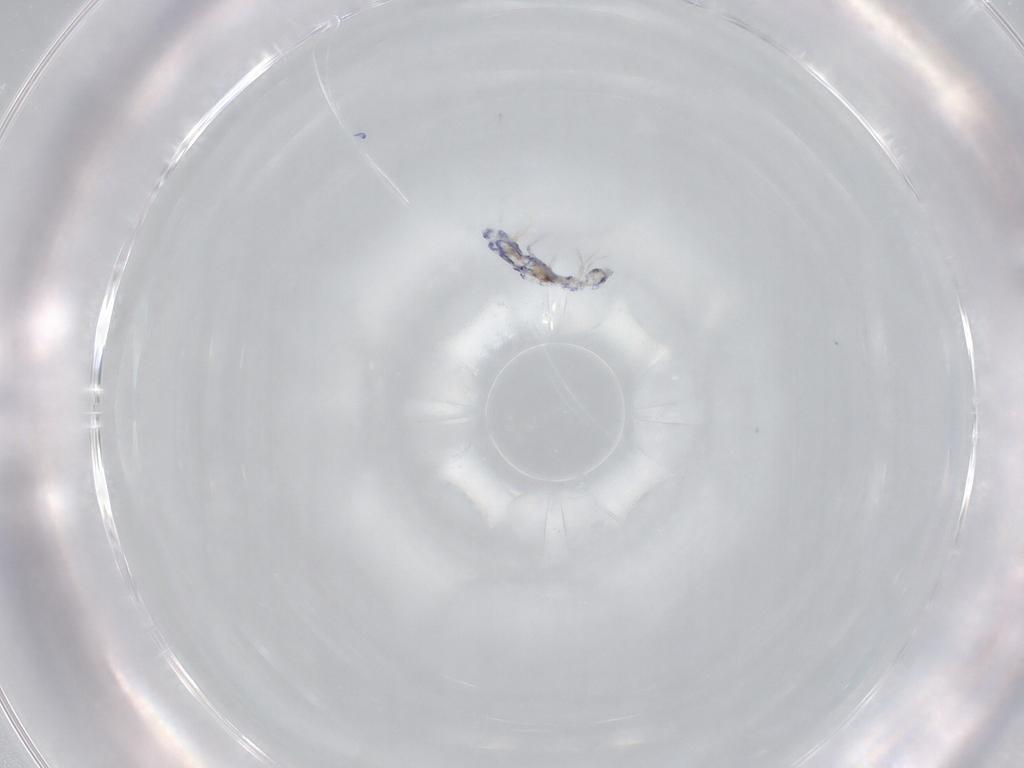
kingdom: Animalia
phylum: Arthropoda
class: Collembola
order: Entomobryomorpha
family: Entomobryidae
